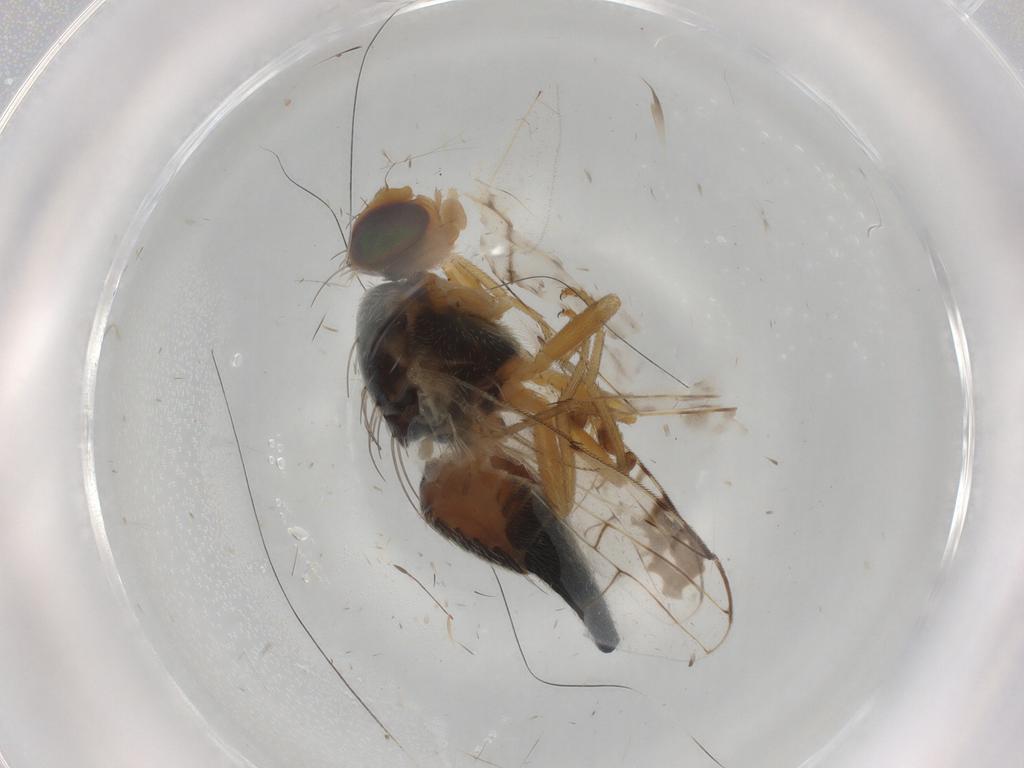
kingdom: Animalia
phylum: Arthropoda
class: Insecta
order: Diptera
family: Tephritidae
